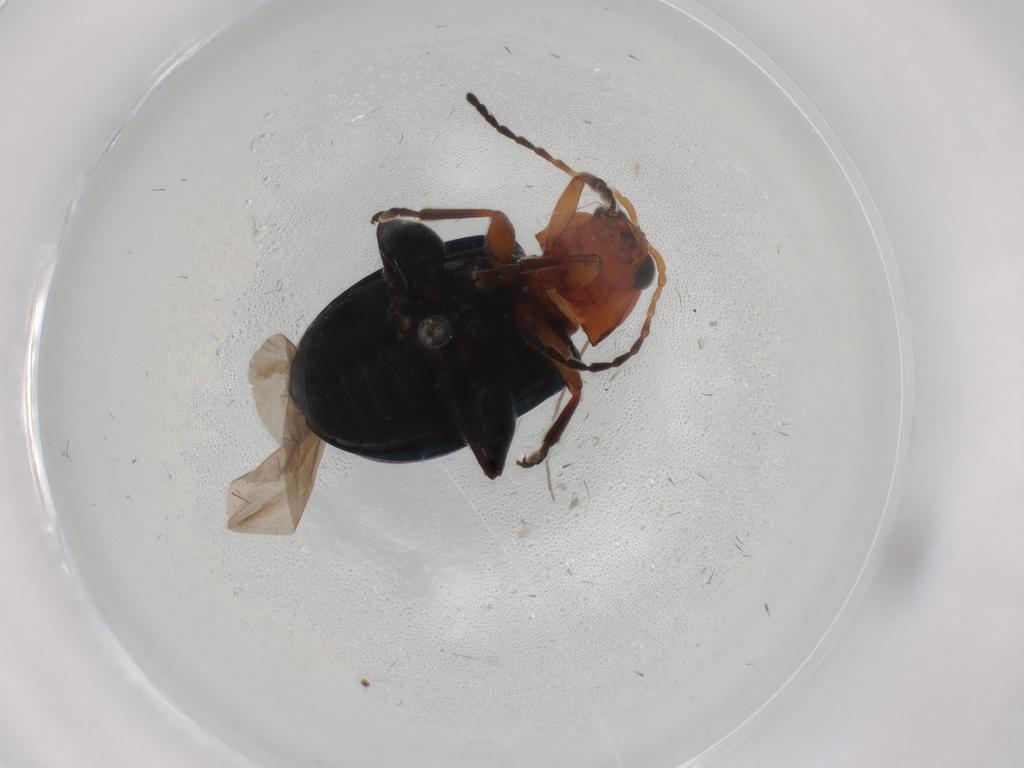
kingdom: Animalia
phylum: Arthropoda
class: Insecta
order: Coleoptera
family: Chrysomelidae
